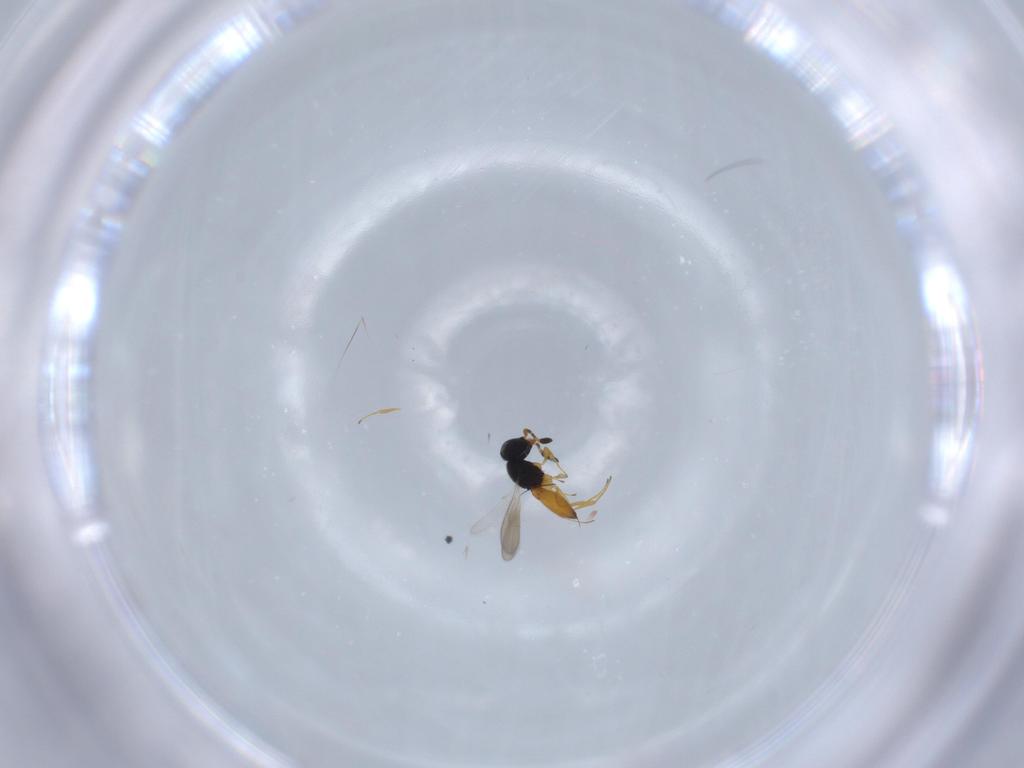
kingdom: Animalia
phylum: Arthropoda
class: Insecta
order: Hymenoptera
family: Scelionidae
